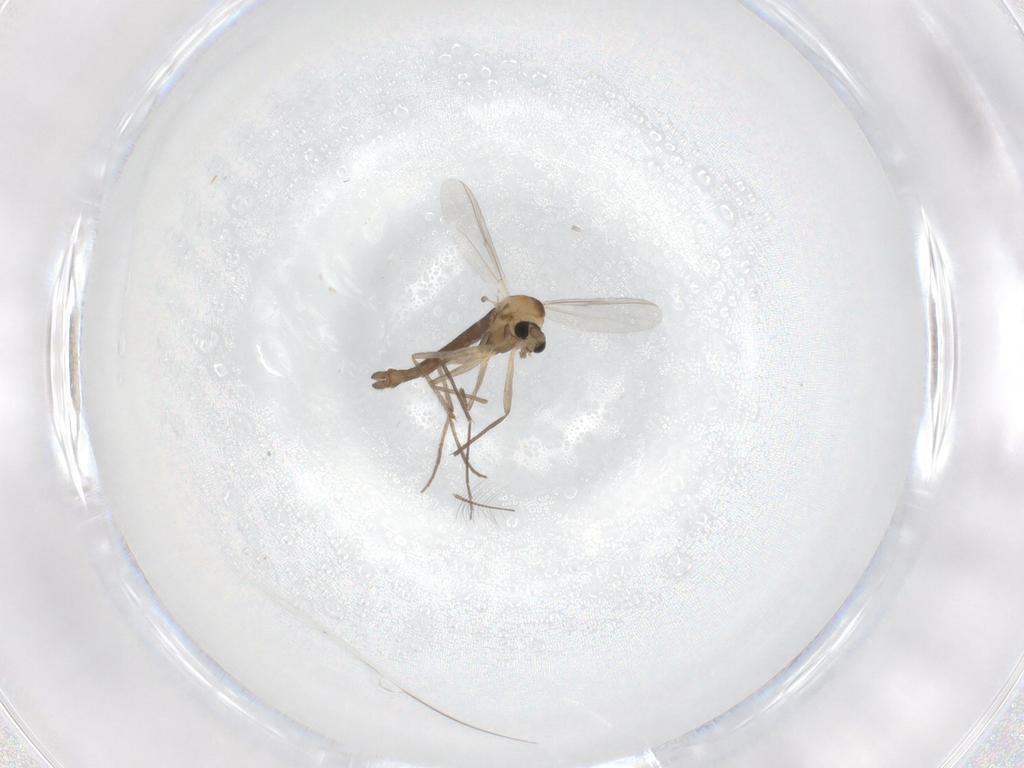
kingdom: Animalia
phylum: Arthropoda
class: Insecta
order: Diptera
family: Chironomidae
